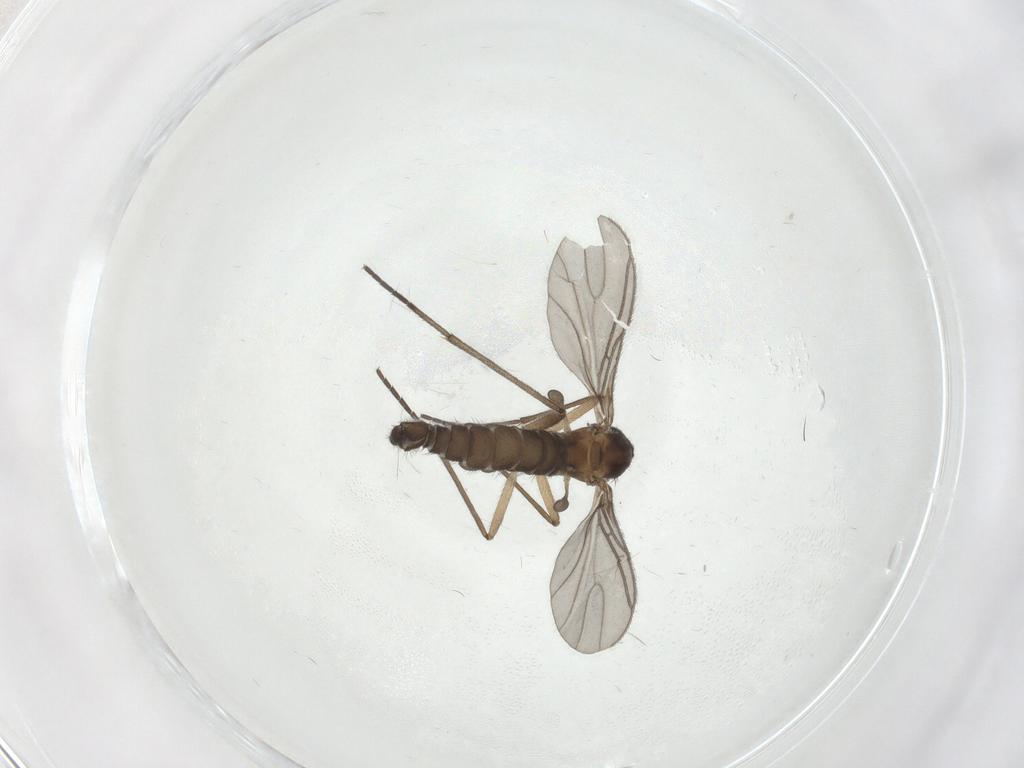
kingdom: Animalia
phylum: Arthropoda
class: Insecta
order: Diptera
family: Sciaridae
